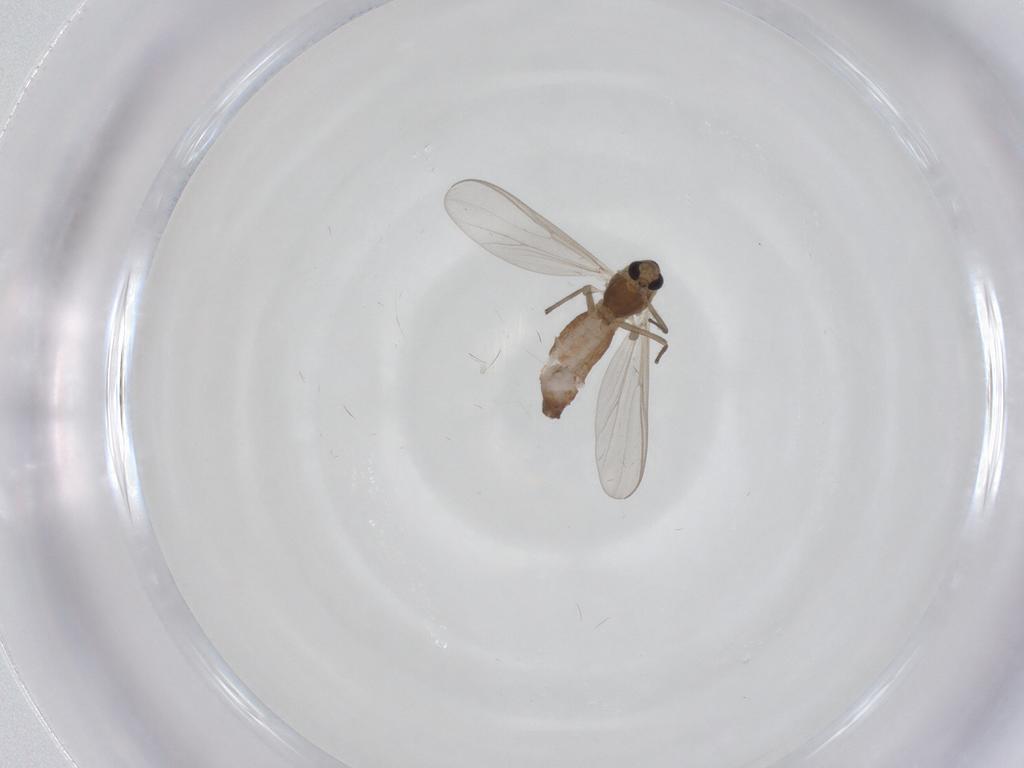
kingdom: Animalia
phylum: Arthropoda
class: Insecta
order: Diptera
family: Chironomidae
